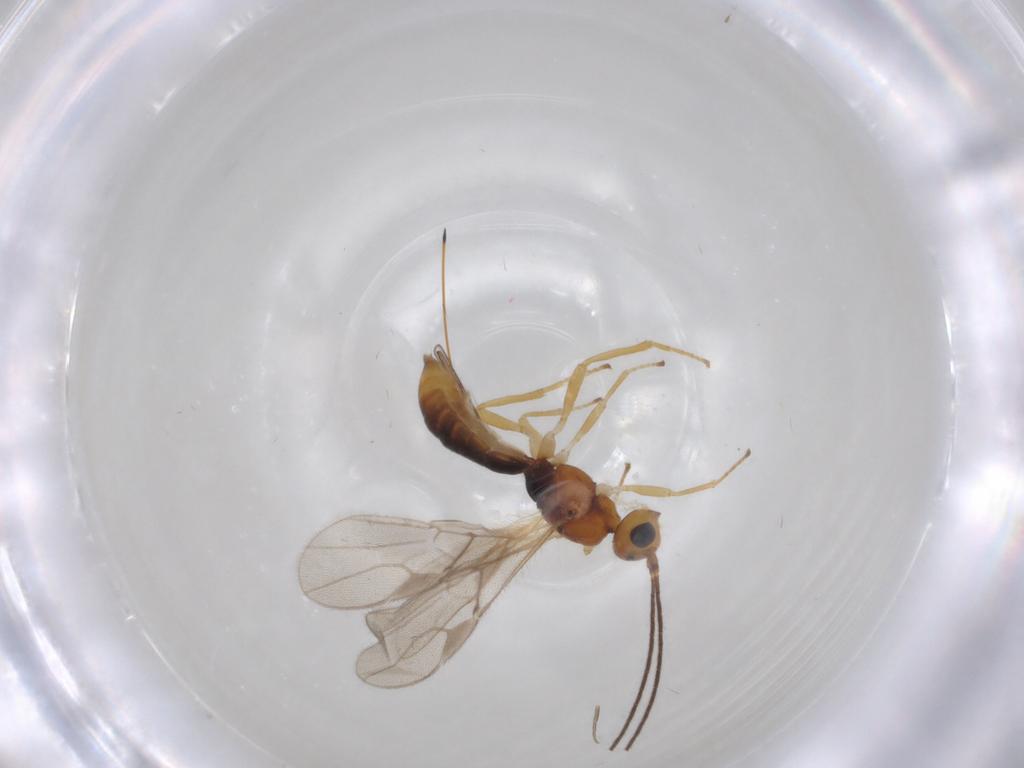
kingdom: Animalia
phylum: Arthropoda
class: Insecta
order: Hymenoptera
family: Braconidae
